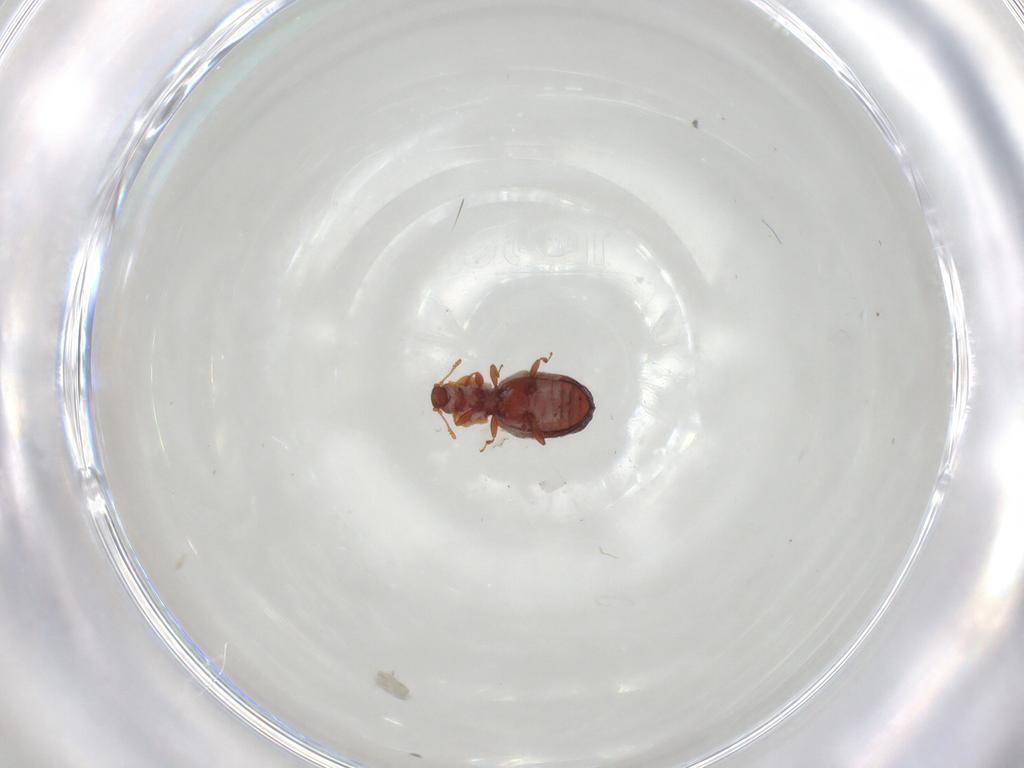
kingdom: Animalia
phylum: Arthropoda
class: Insecta
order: Coleoptera
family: Latridiidae
